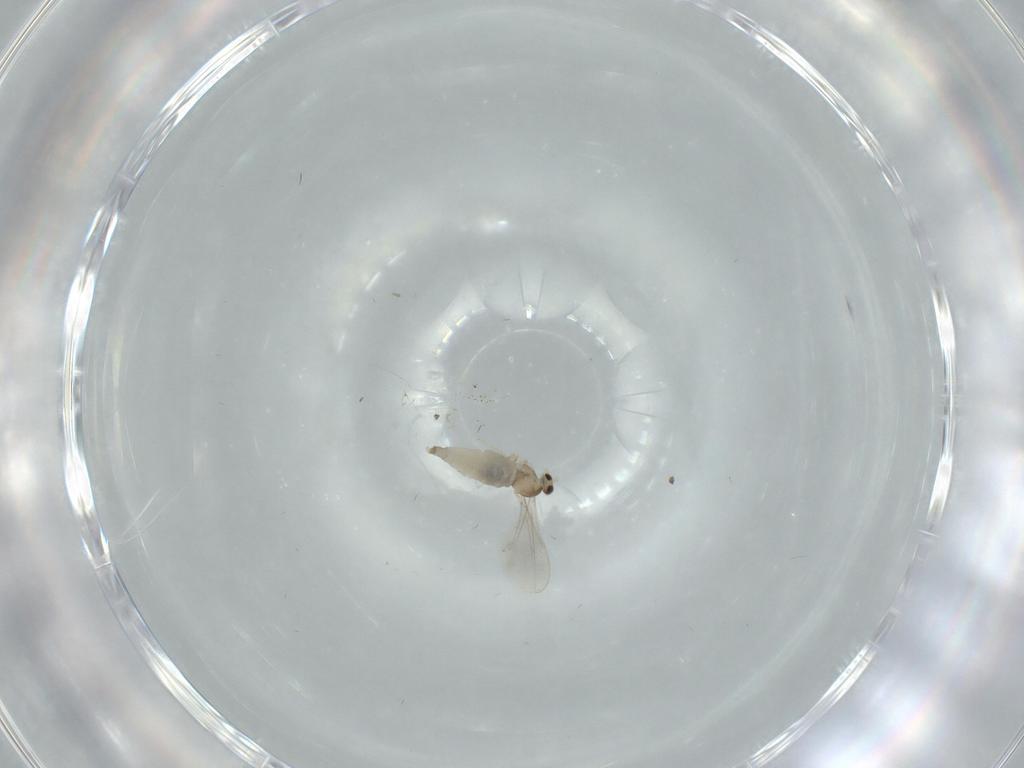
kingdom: Animalia
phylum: Arthropoda
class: Insecta
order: Diptera
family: Cecidomyiidae
